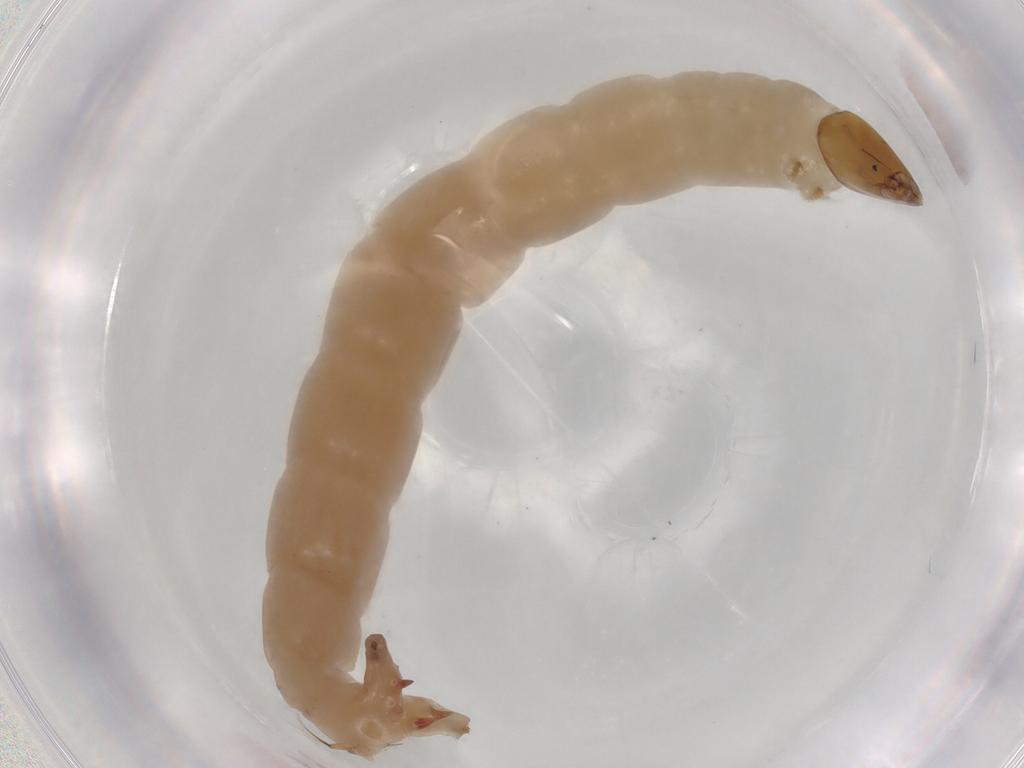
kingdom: Animalia
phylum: Arthropoda
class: Insecta
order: Diptera
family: Chironomidae
